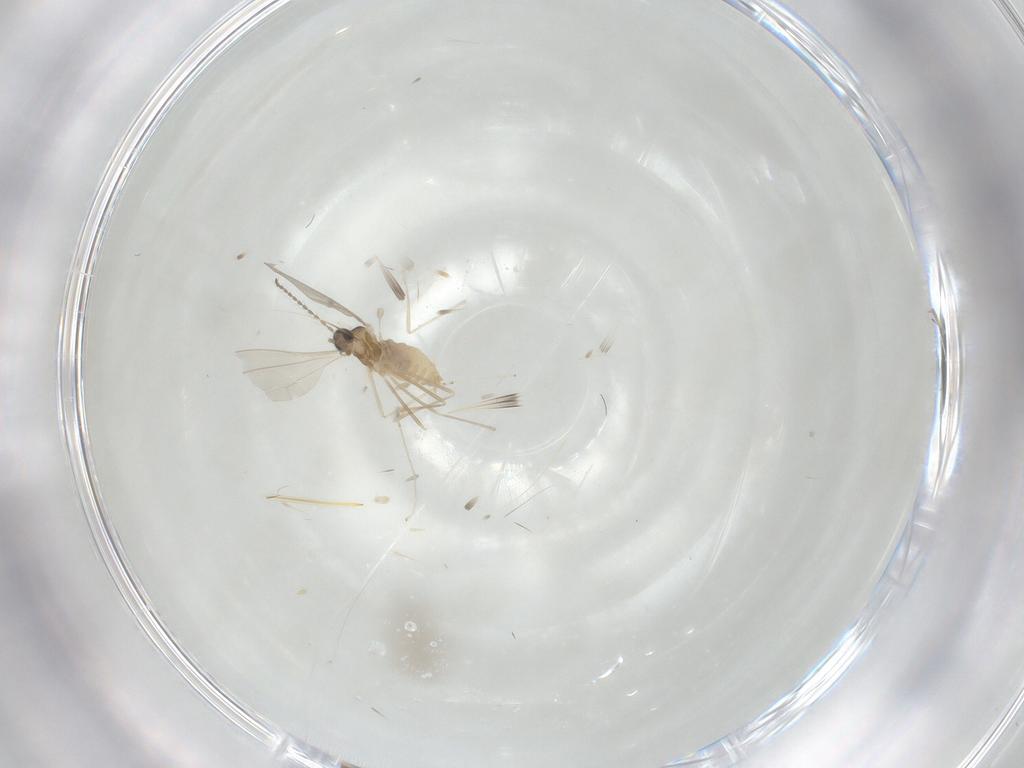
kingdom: Animalia
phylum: Arthropoda
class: Insecta
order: Diptera
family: Cecidomyiidae
